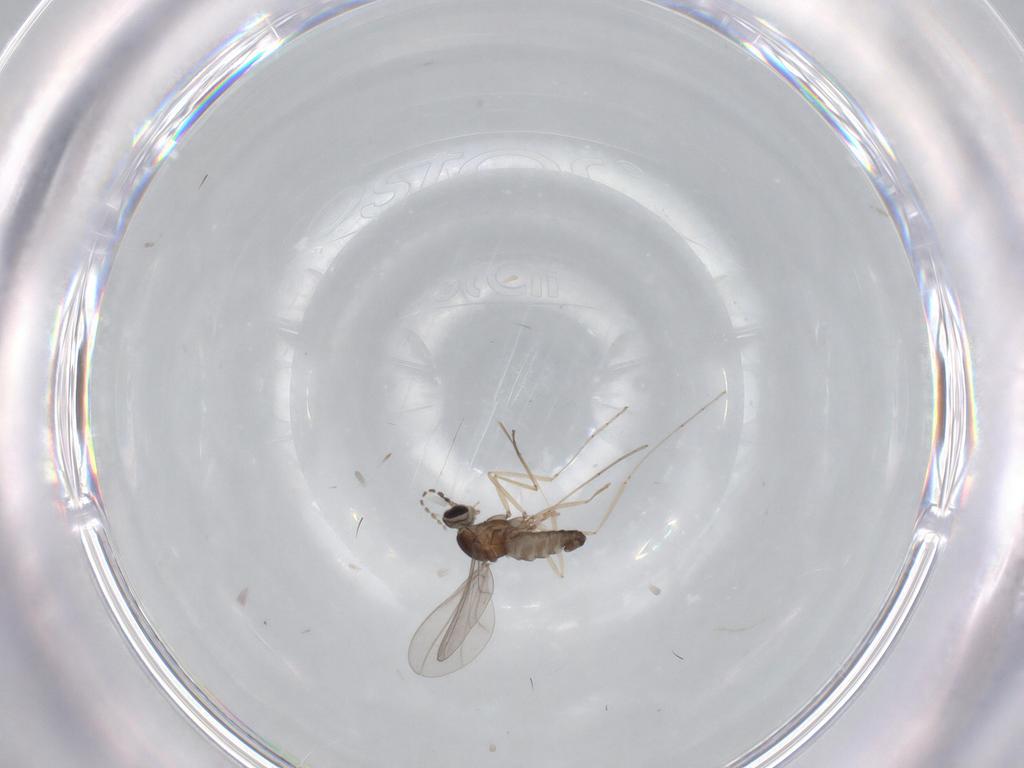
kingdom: Animalia
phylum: Arthropoda
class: Insecta
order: Diptera
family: Cecidomyiidae
